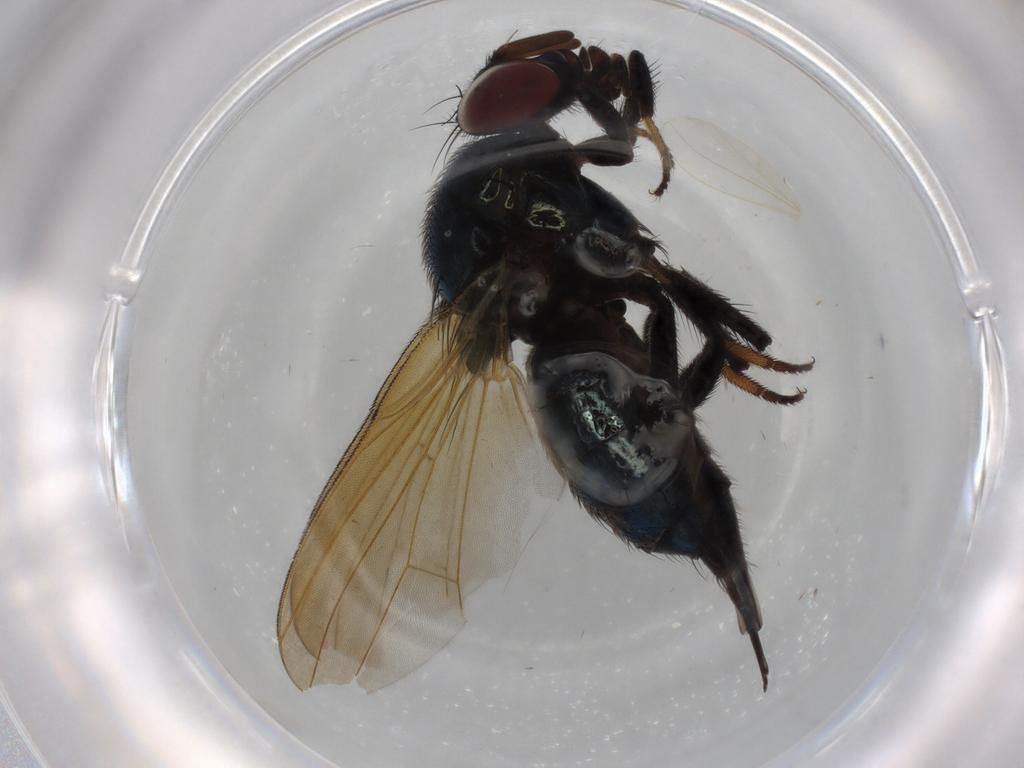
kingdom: Animalia
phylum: Arthropoda
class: Insecta
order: Diptera
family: Lonchaeidae
